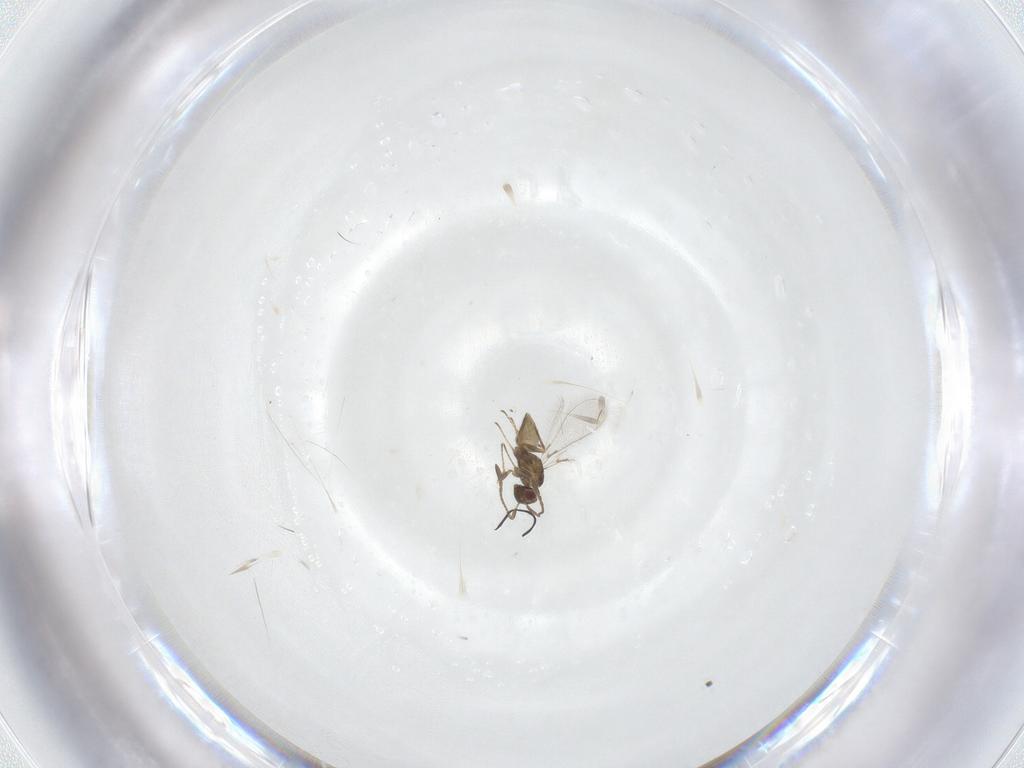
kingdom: Animalia
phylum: Arthropoda
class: Insecta
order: Hymenoptera
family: Mymaridae
